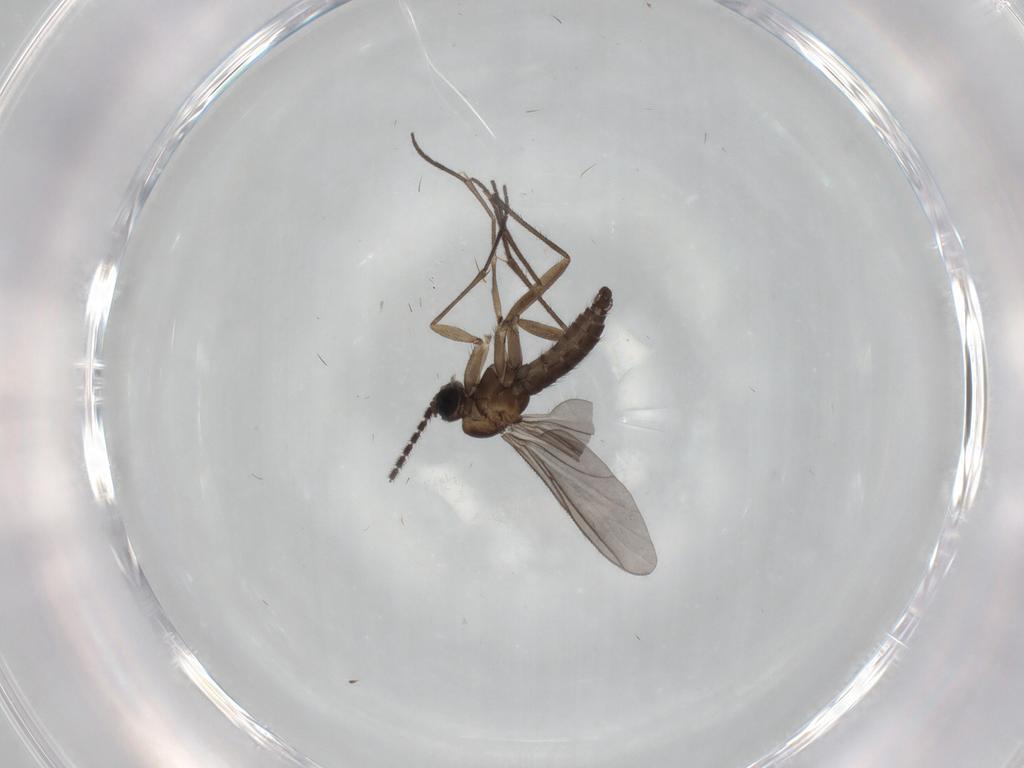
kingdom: Animalia
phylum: Arthropoda
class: Insecta
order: Diptera
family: Sciaridae
